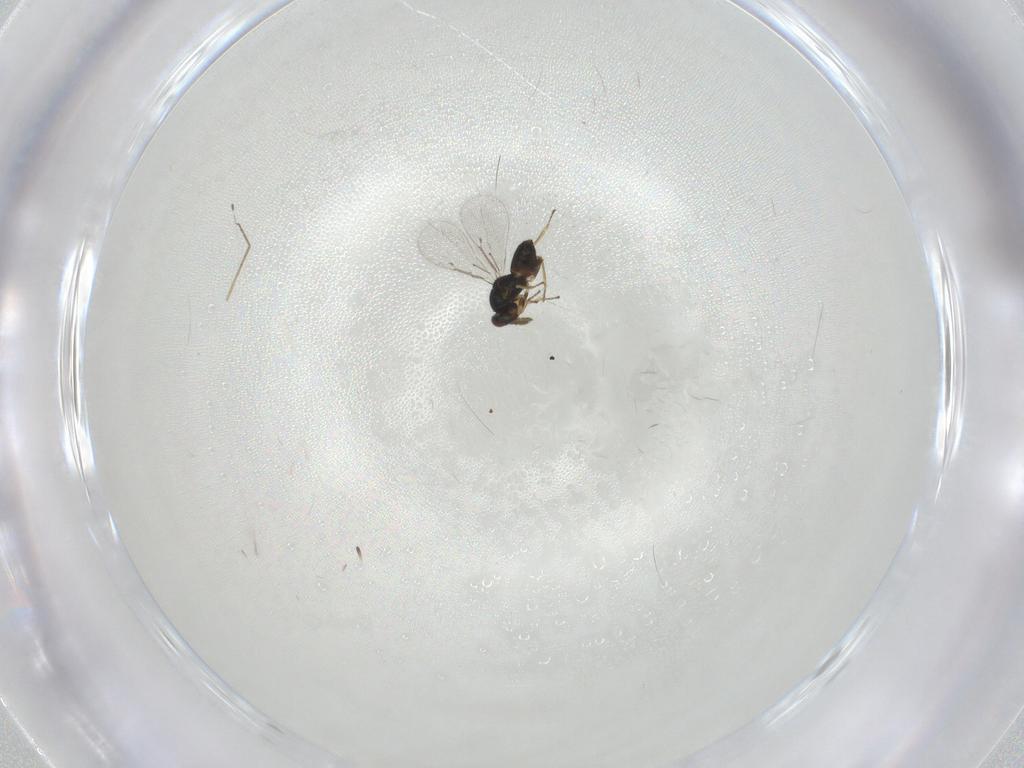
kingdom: Animalia
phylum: Arthropoda
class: Insecta
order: Hymenoptera
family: Eulophidae
